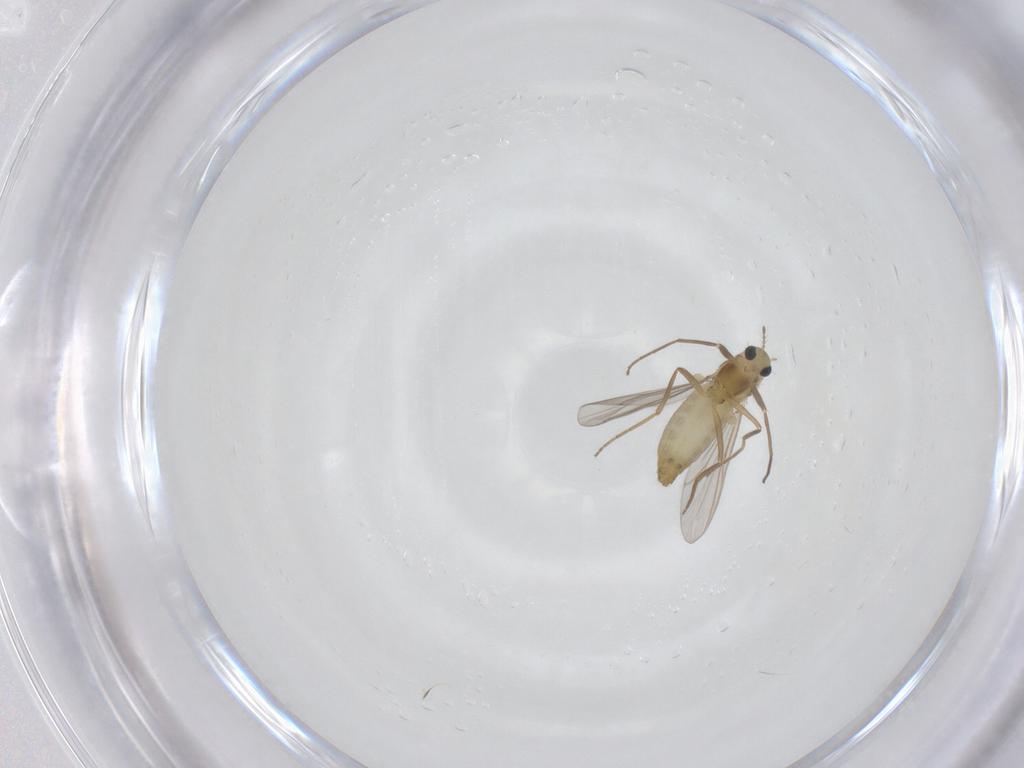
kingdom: Animalia
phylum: Arthropoda
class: Insecta
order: Diptera
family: Chironomidae
